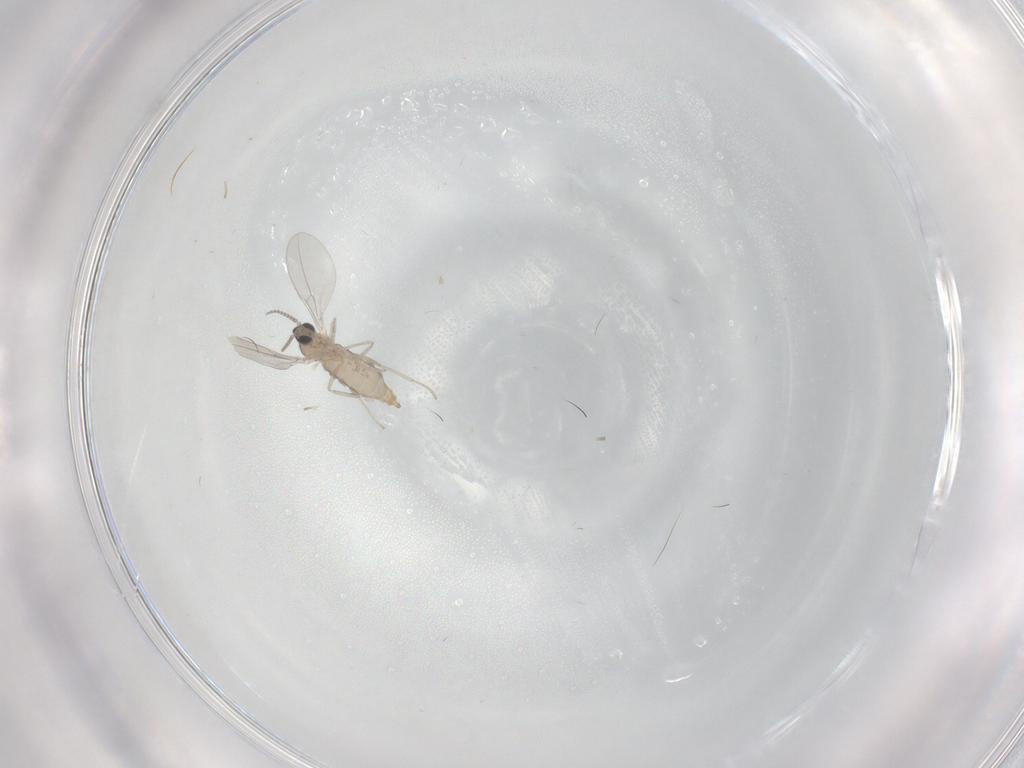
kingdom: Animalia
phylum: Arthropoda
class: Insecta
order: Diptera
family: Cecidomyiidae
